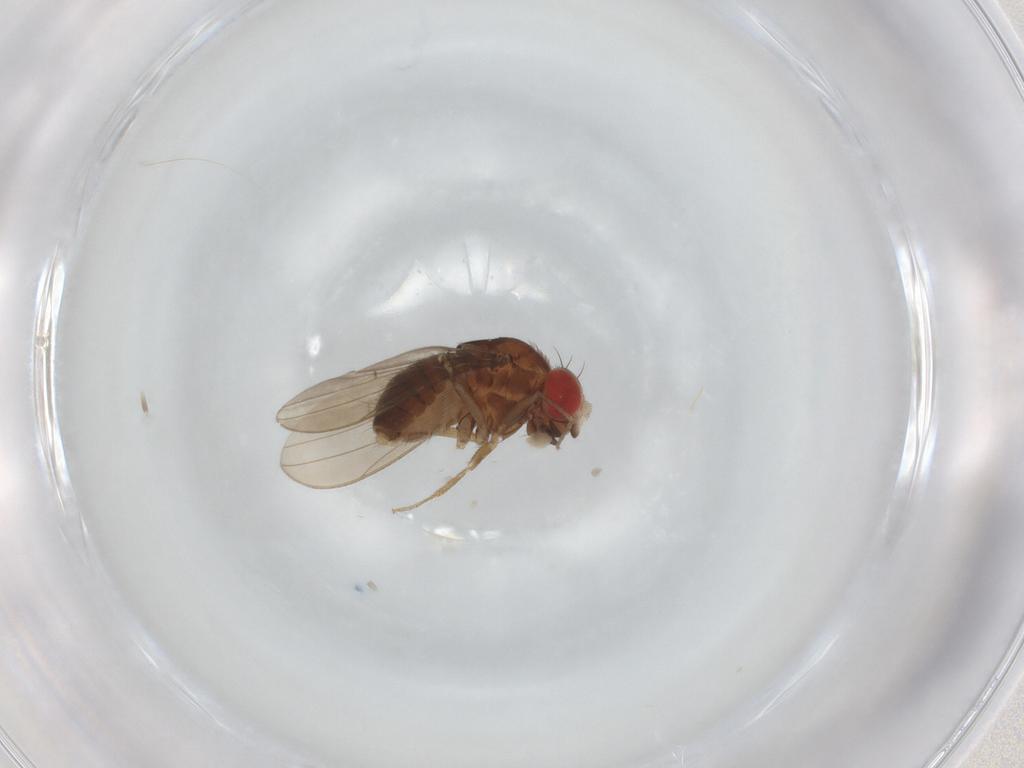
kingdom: Animalia
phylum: Arthropoda
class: Insecta
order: Diptera
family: Drosophilidae
